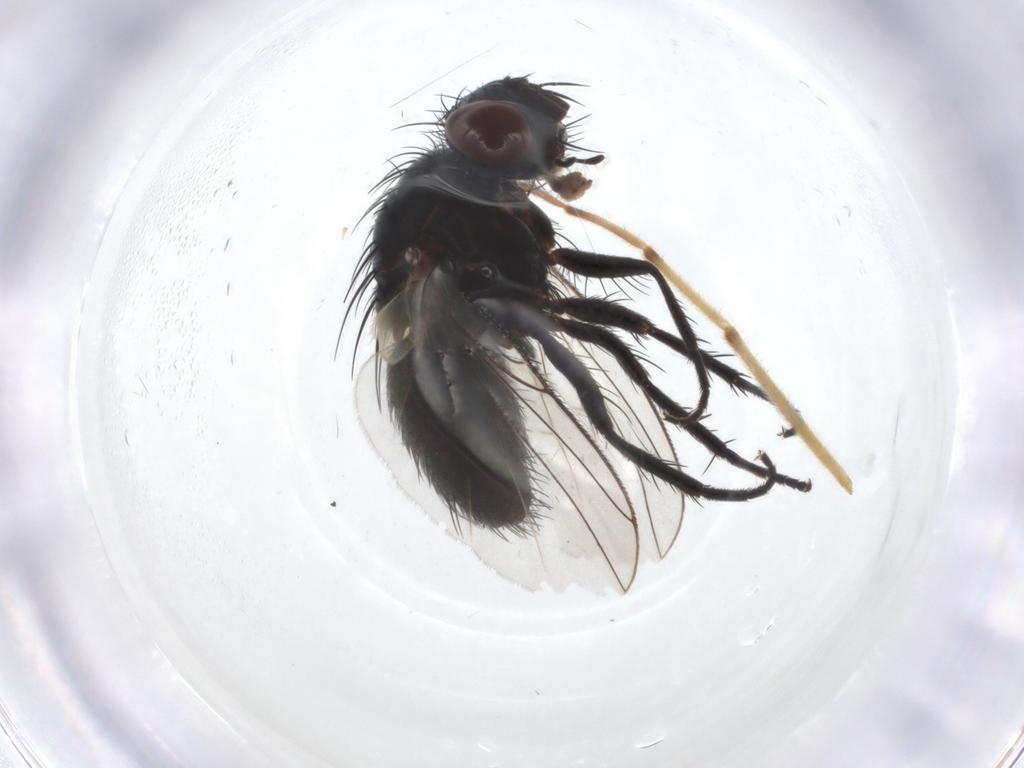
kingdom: Animalia
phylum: Arthropoda
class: Insecta
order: Diptera
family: Tachinidae
